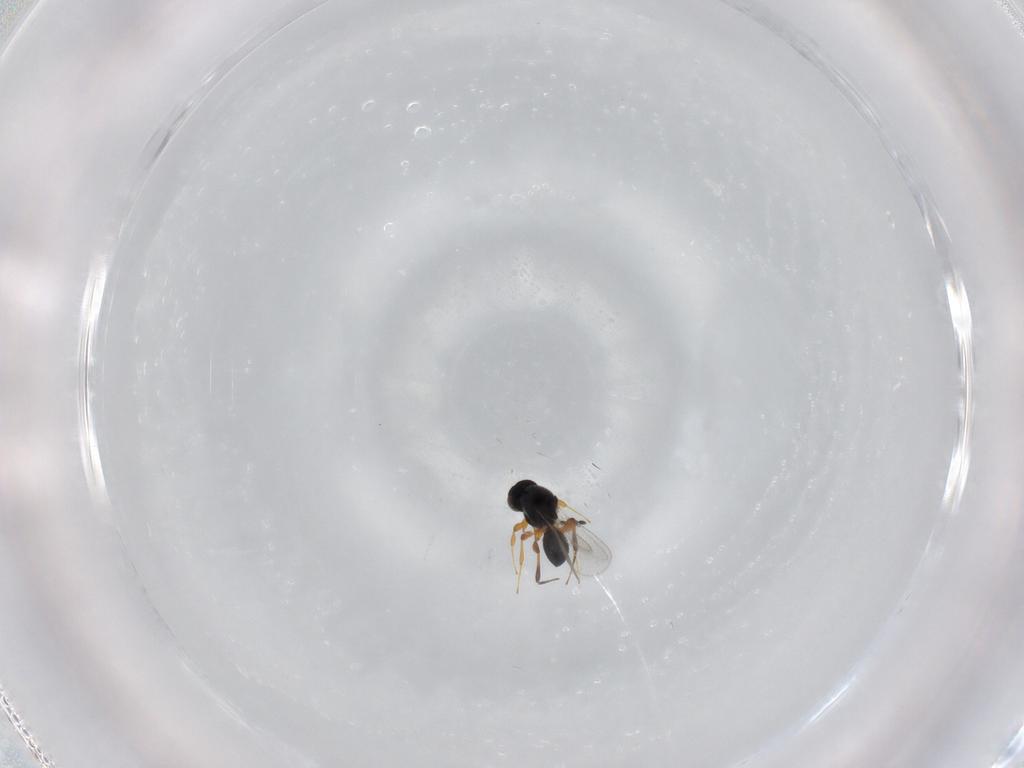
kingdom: Animalia
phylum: Arthropoda
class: Insecta
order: Hymenoptera
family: Platygastridae
